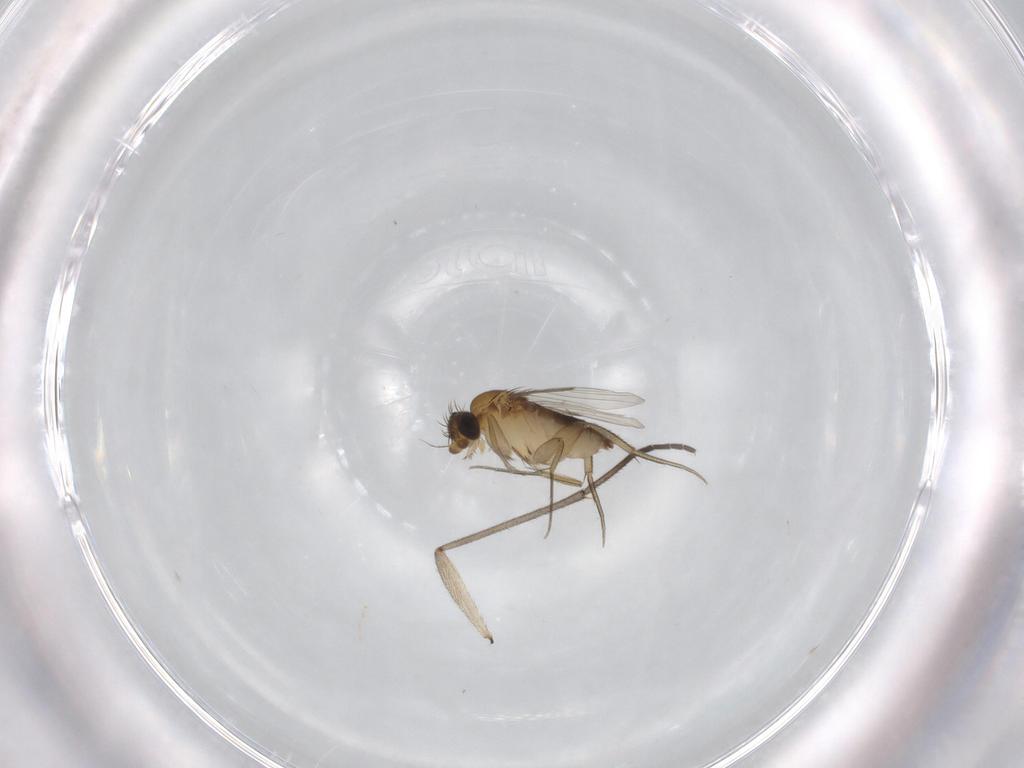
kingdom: Animalia
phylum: Arthropoda
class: Insecta
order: Diptera
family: Phoridae
